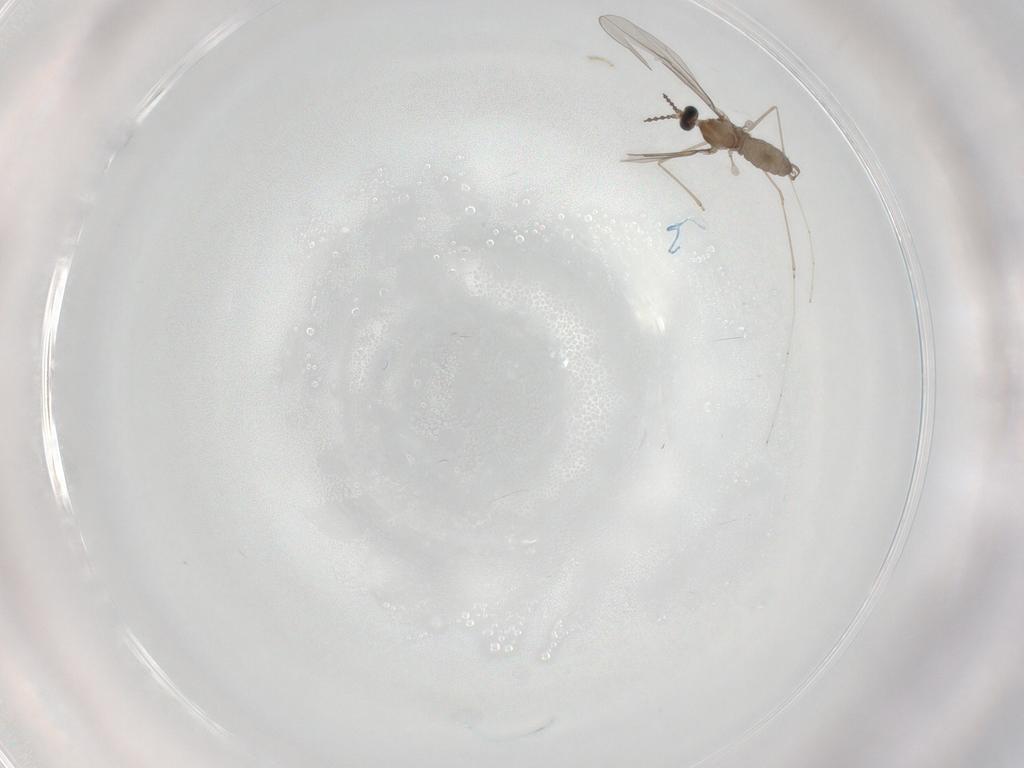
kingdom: Animalia
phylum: Arthropoda
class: Insecta
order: Diptera
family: Cecidomyiidae
